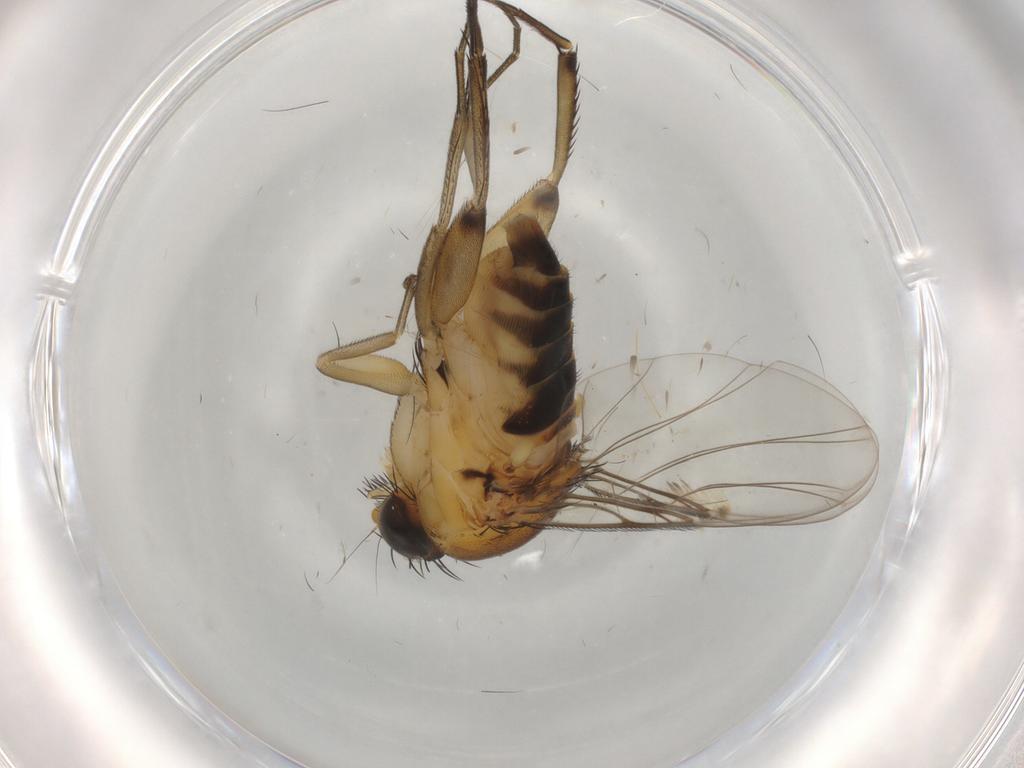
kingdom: Animalia
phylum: Arthropoda
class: Insecta
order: Diptera
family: Phoridae
